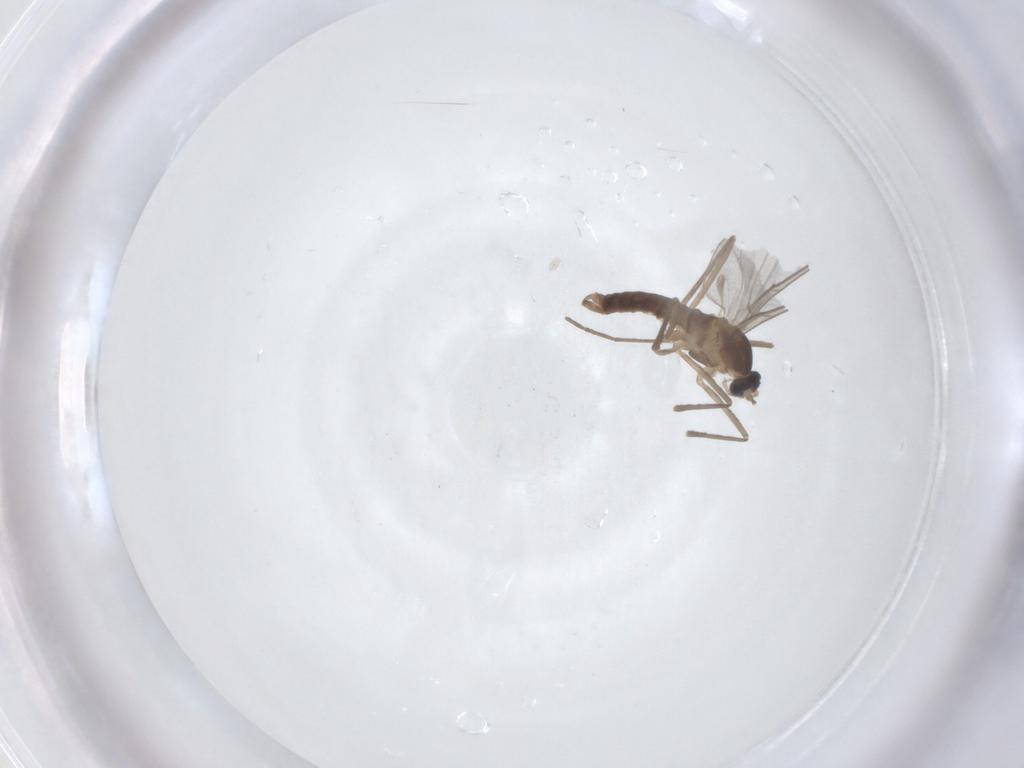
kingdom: Animalia
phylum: Arthropoda
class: Insecta
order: Diptera
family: Cecidomyiidae
